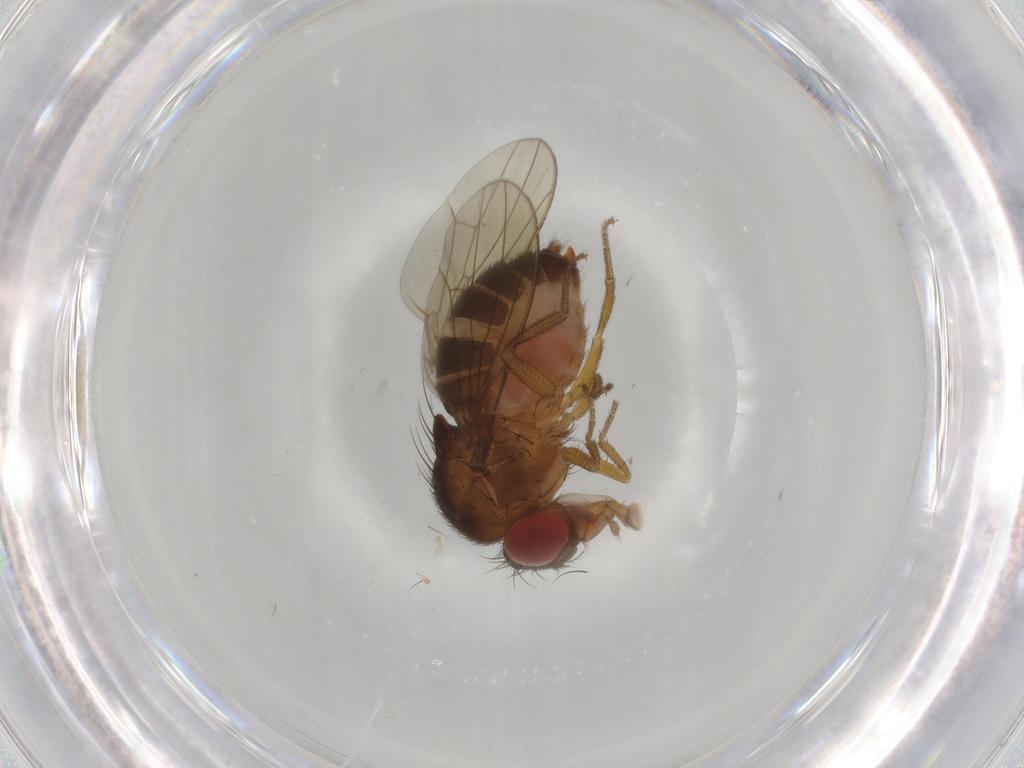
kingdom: Animalia
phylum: Arthropoda
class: Insecta
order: Diptera
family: Drosophilidae
